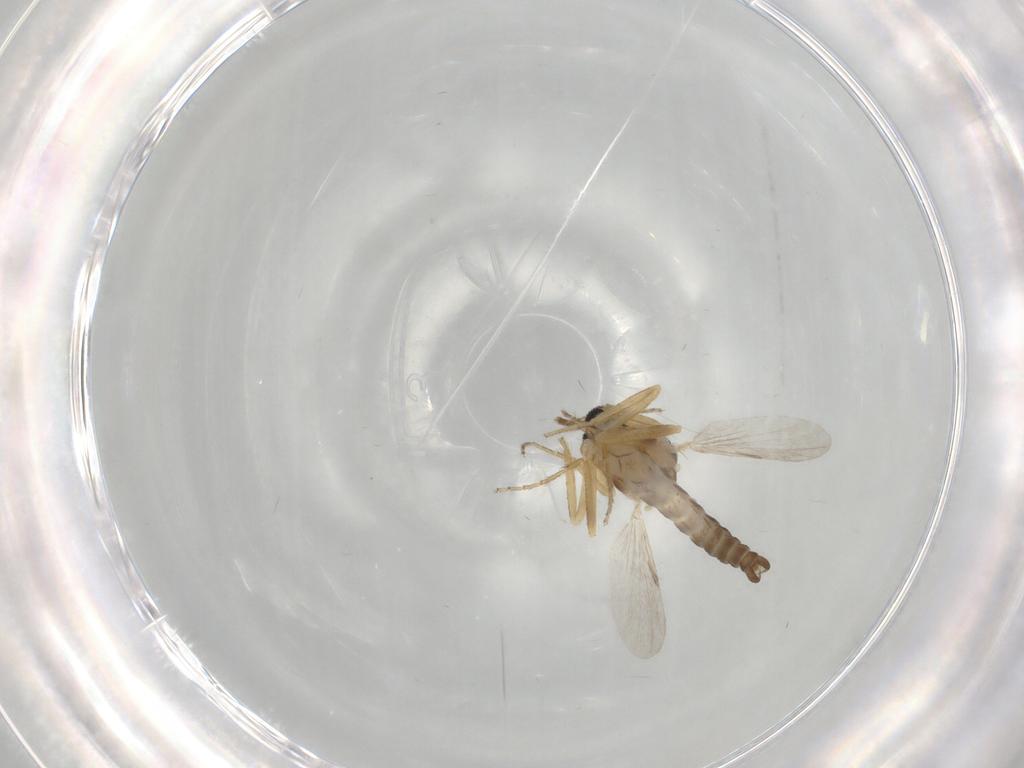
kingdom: Animalia
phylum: Arthropoda
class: Insecta
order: Diptera
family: Ceratopogonidae
